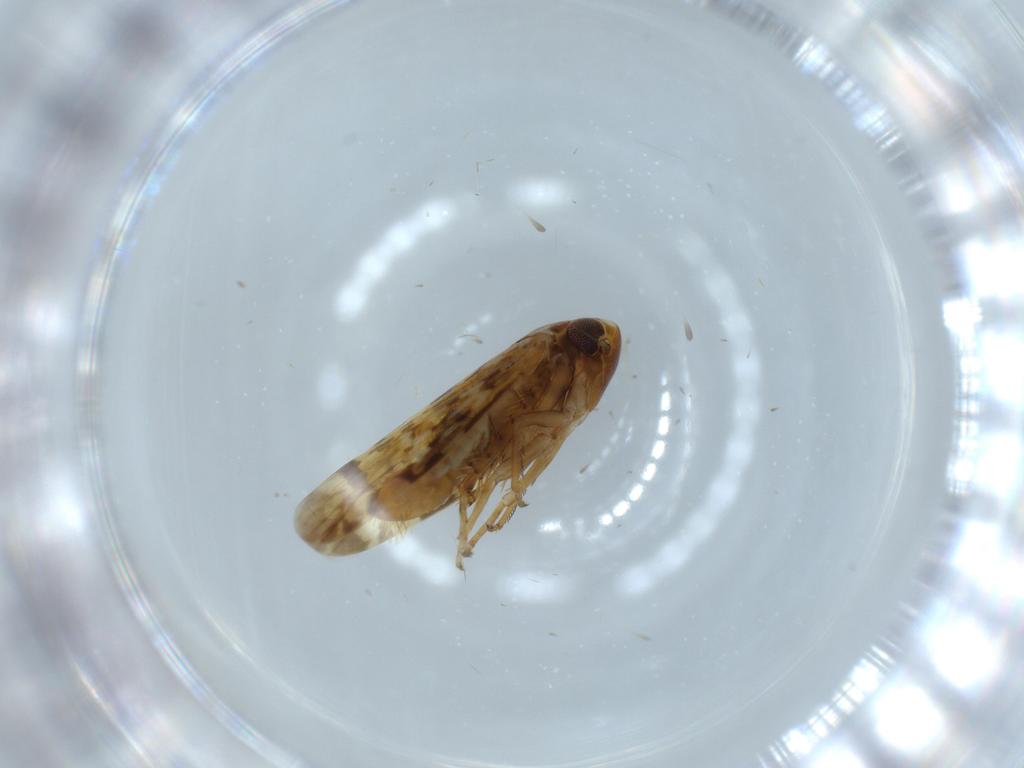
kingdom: Animalia
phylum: Arthropoda
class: Insecta
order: Hemiptera
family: Cicadellidae
